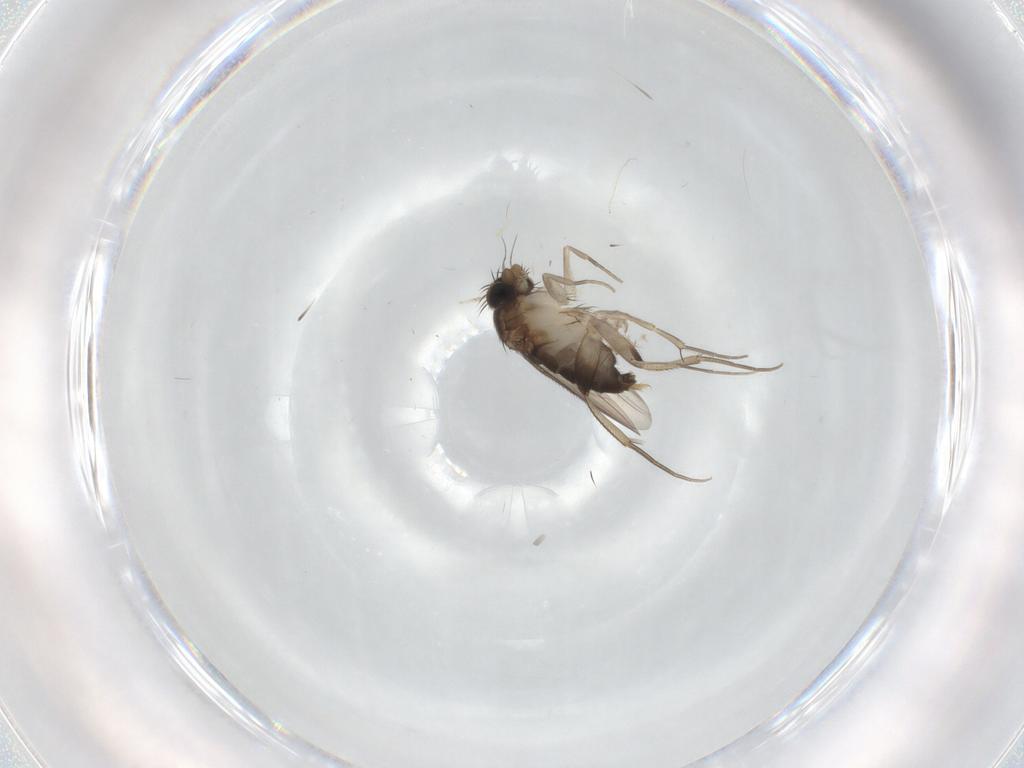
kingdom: Animalia
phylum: Arthropoda
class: Insecta
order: Diptera
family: Phoridae
